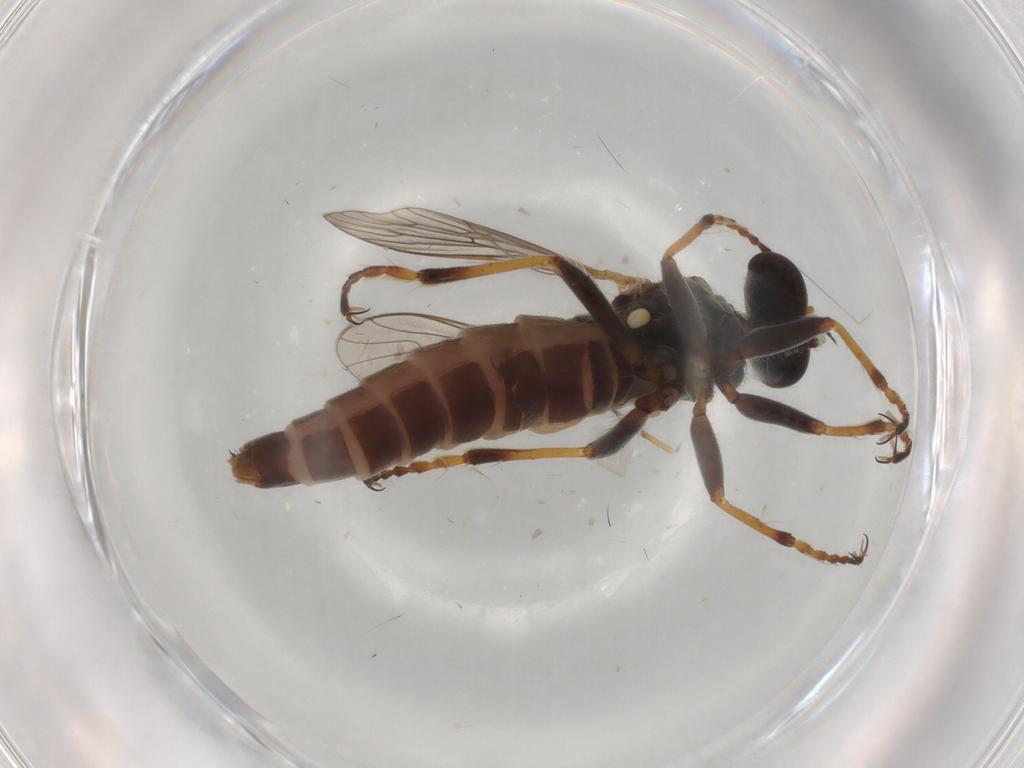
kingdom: Animalia
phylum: Arthropoda
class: Insecta
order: Diptera
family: Asilidae
